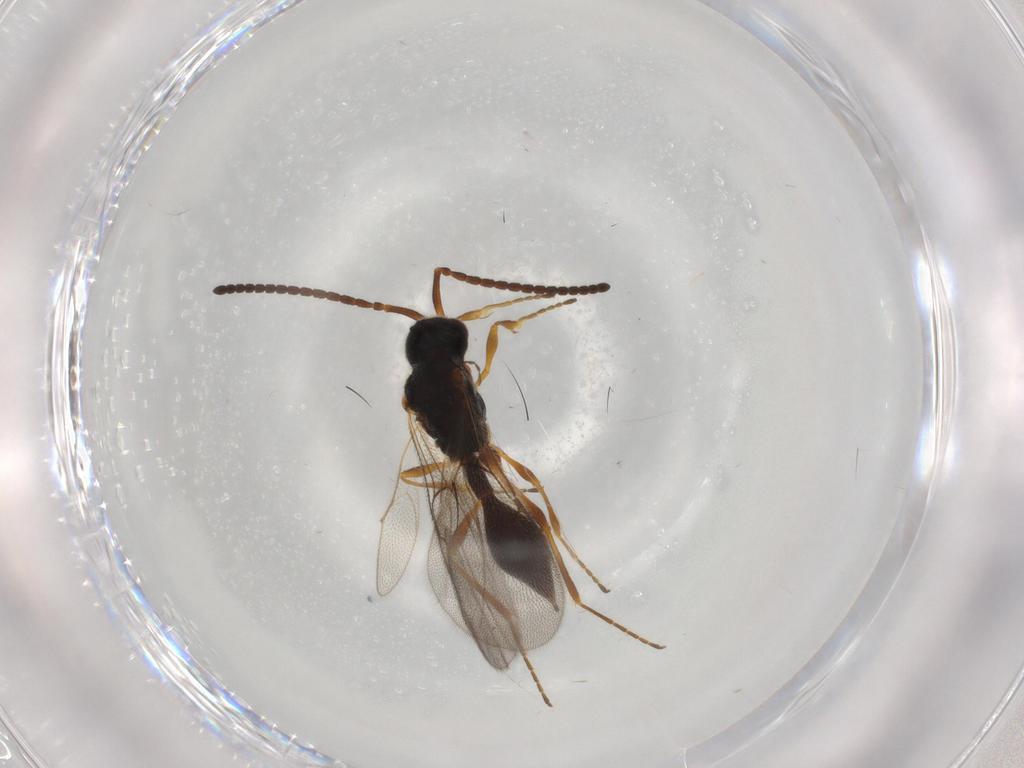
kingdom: Animalia
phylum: Arthropoda
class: Insecta
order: Hymenoptera
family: Diapriidae
